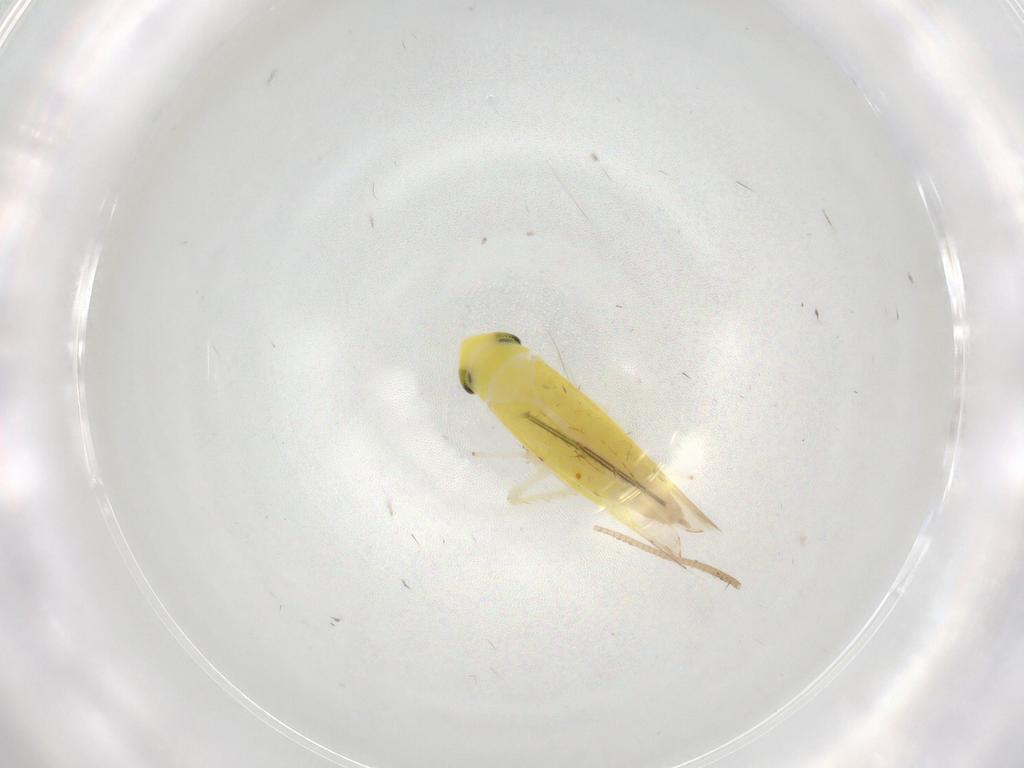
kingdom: Animalia
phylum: Arthropoda
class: Insecta
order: Hemiptera
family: Cicadellidae
